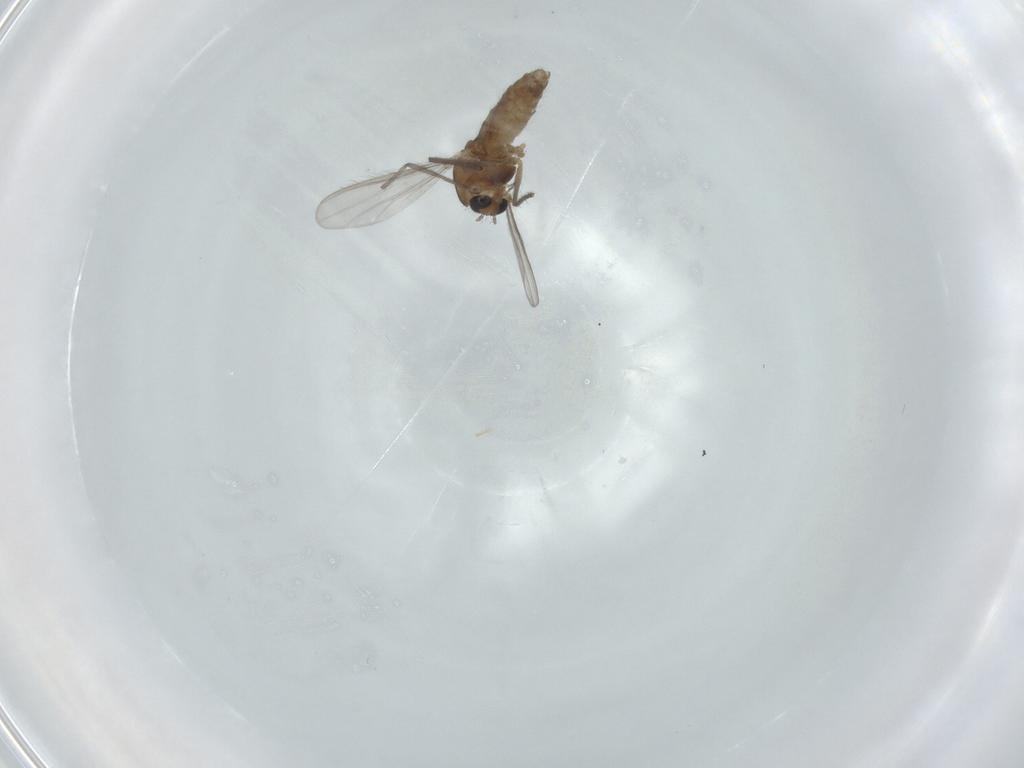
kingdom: Animalia
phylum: Arthropoda
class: Insecta
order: Diptera
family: Chironomidae
